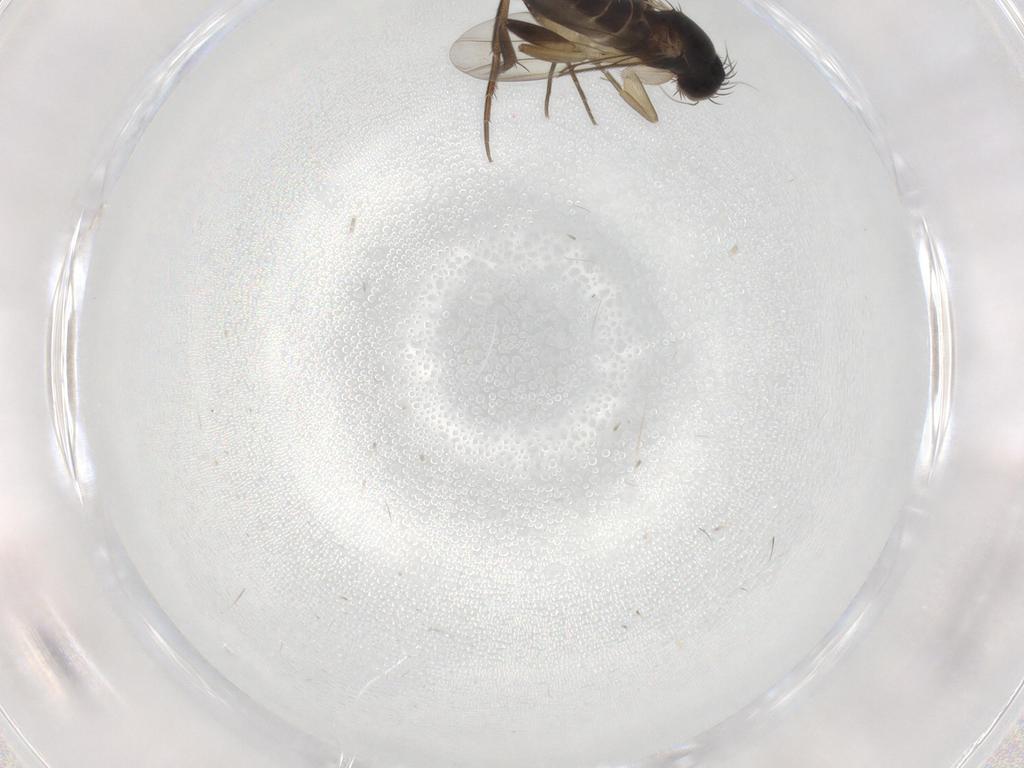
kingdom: Animalia
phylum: Arthropoda
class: Insecta
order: Diptera
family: Phoridae
